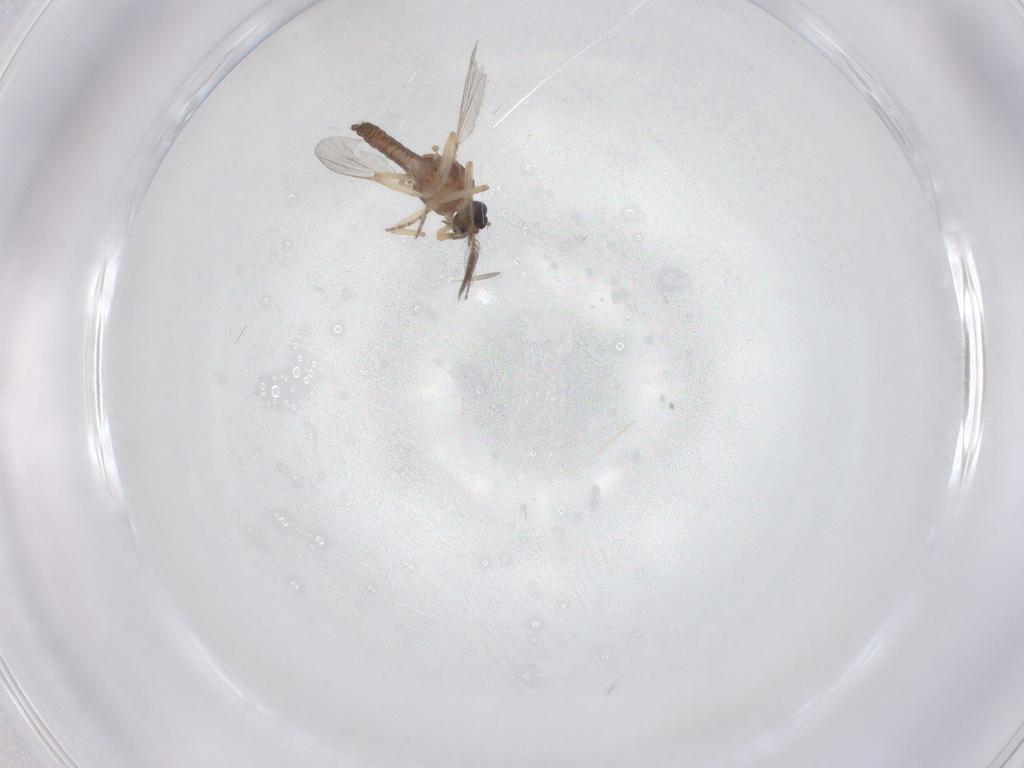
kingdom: Animalia
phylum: Arthropoda
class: Insecta
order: Diptera
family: Ceratopogonidae
